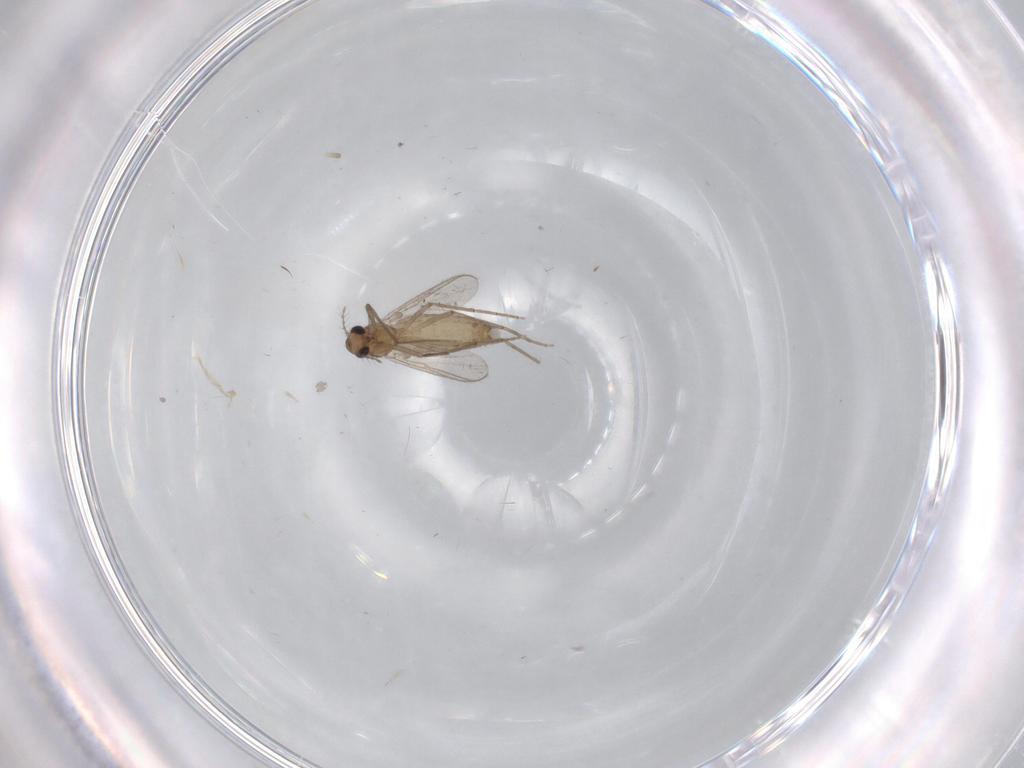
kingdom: Animalia
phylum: Arthropoda
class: Insecta
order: Diptera
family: Chironomidae
